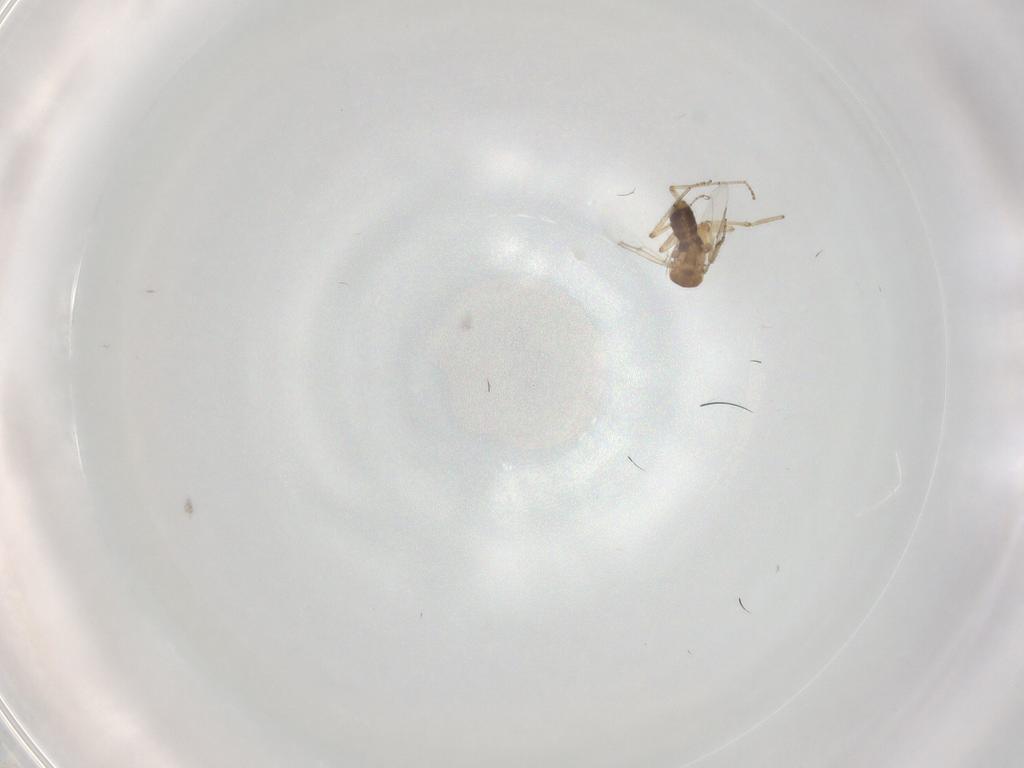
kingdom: Animalia
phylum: Arthropoda
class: Insecta
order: Diptera
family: Ceratopogonidae
